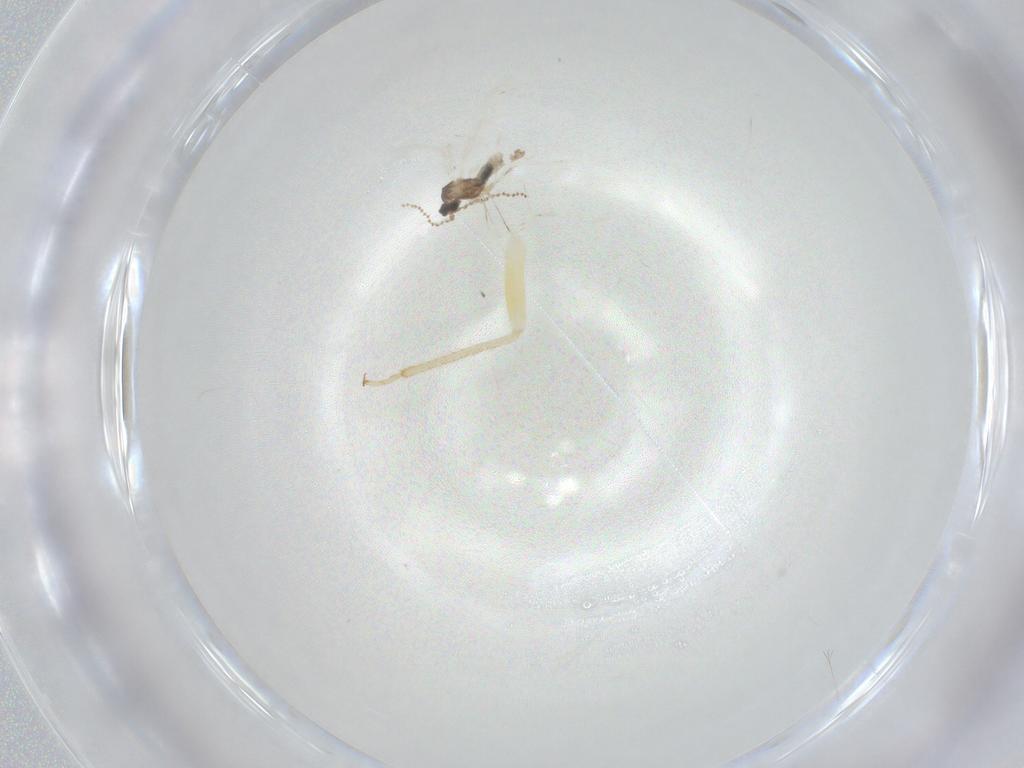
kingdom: Animalia
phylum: Arthropoda
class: Insecta
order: Diptera
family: Cecidomyiidae
